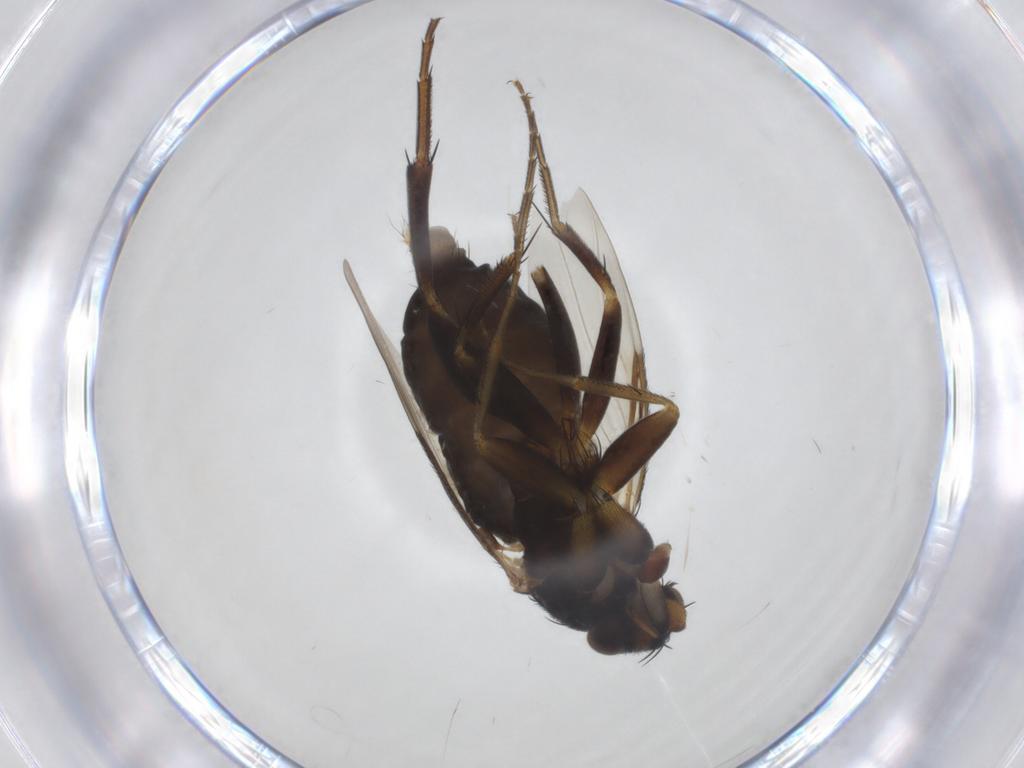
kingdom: Animalia
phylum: Arthropoda
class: Insecta
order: Diptera
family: Phoridae
